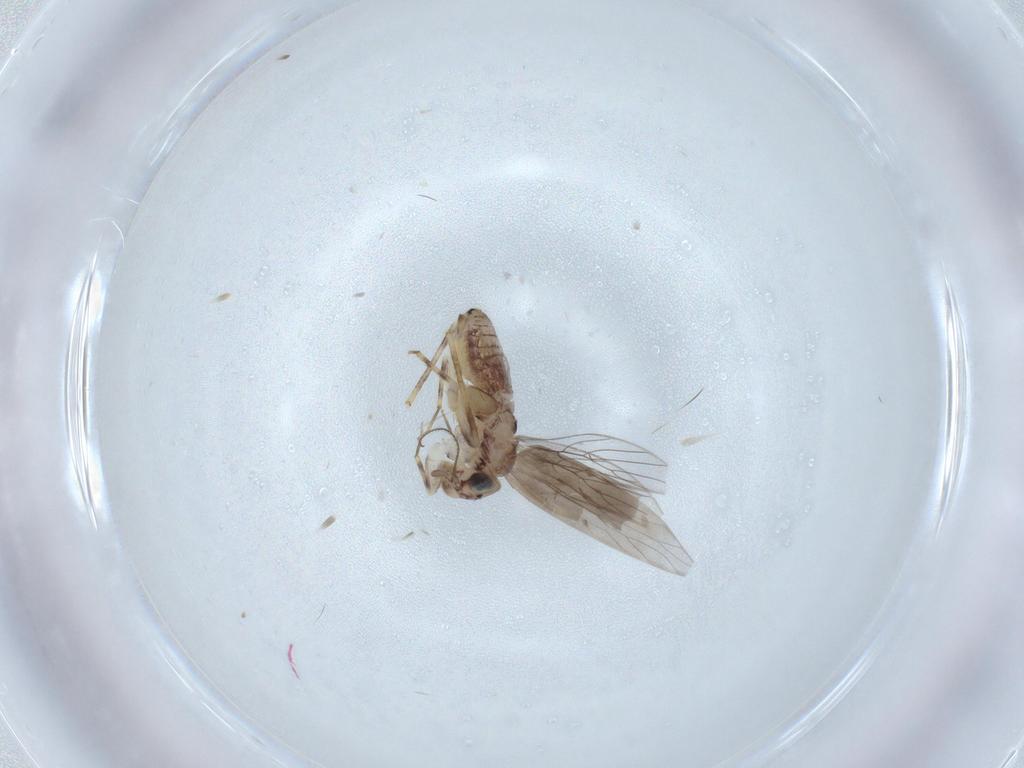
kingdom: Animalia
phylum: Arthropoda
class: Insecta
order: Psocodea
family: Lepidopsocidae
